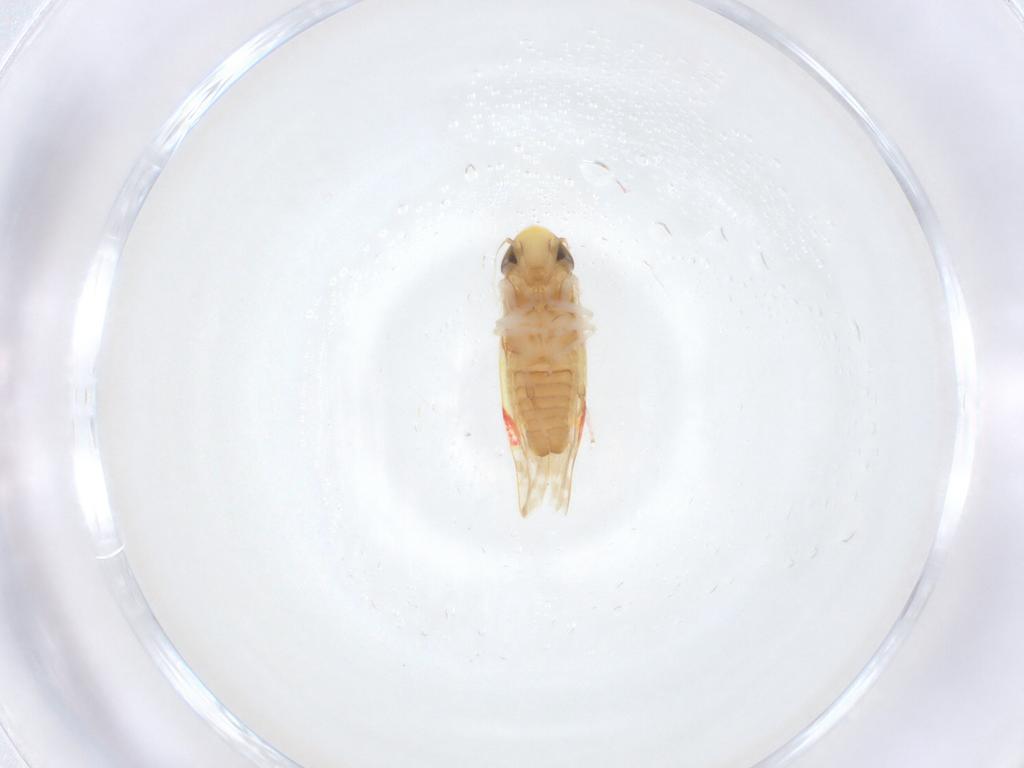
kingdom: Animalia
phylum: Arthropoda
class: Insecta
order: Hemiptera
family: Cicadellidae
